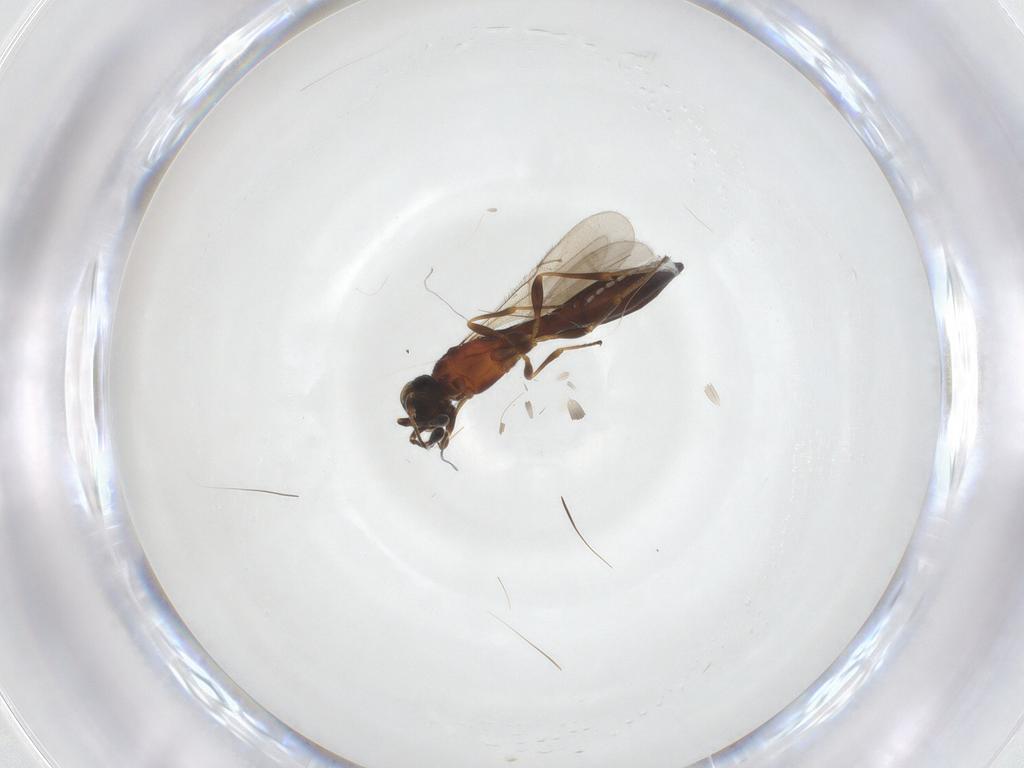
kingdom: Animalia
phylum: Arthropoda
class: Insecta
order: Hymenoptera
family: Scelionidae
